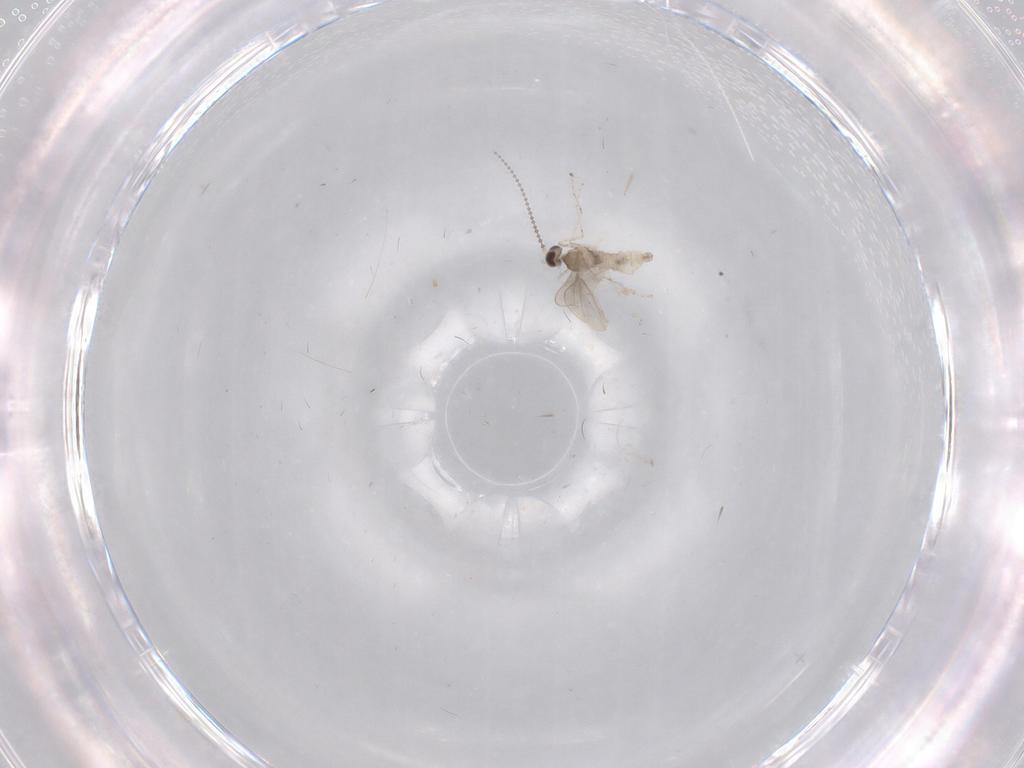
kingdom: Animalia
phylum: Arthropoda
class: Insecta
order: Diptera
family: Cecidomyiidae
